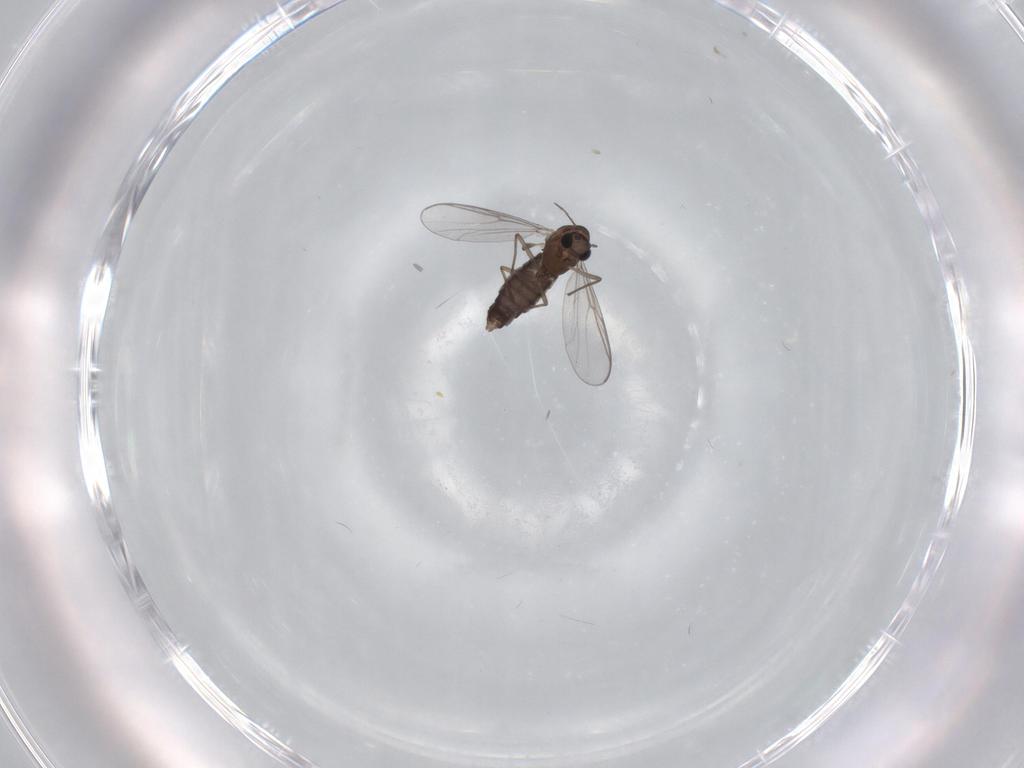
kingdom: Animalia
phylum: Arthropoda
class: Insecta
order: Diptera
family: Chironomidae
